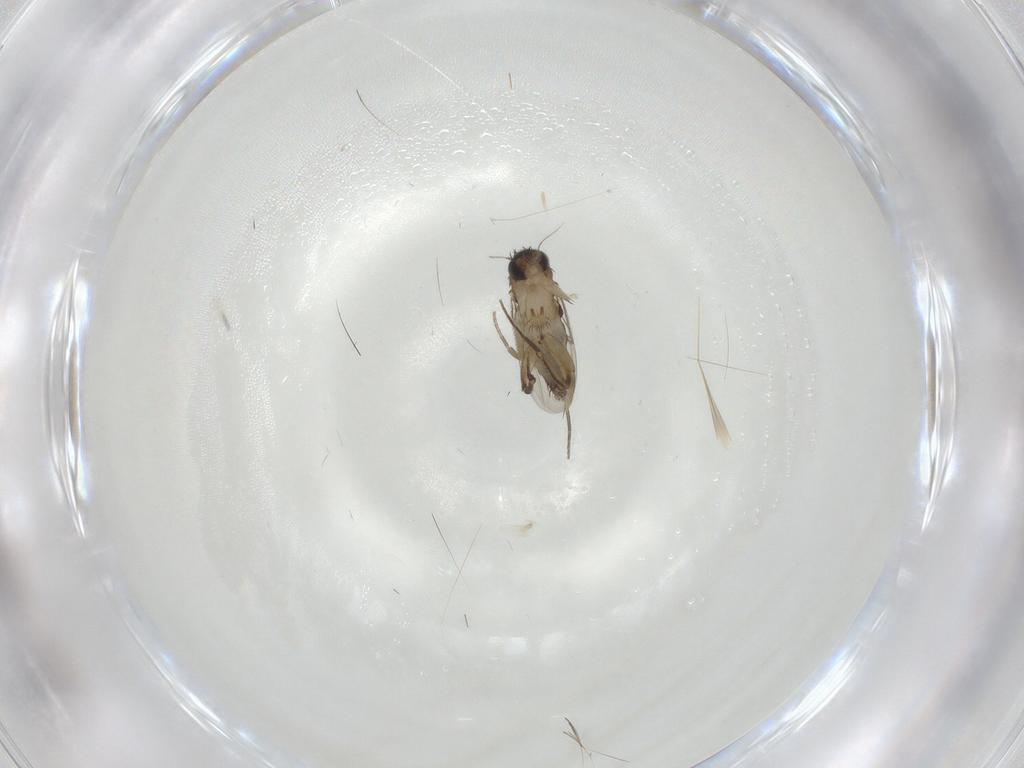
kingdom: Animalia
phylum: Arthropoda
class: Insecta
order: Diptera
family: Phoridae
